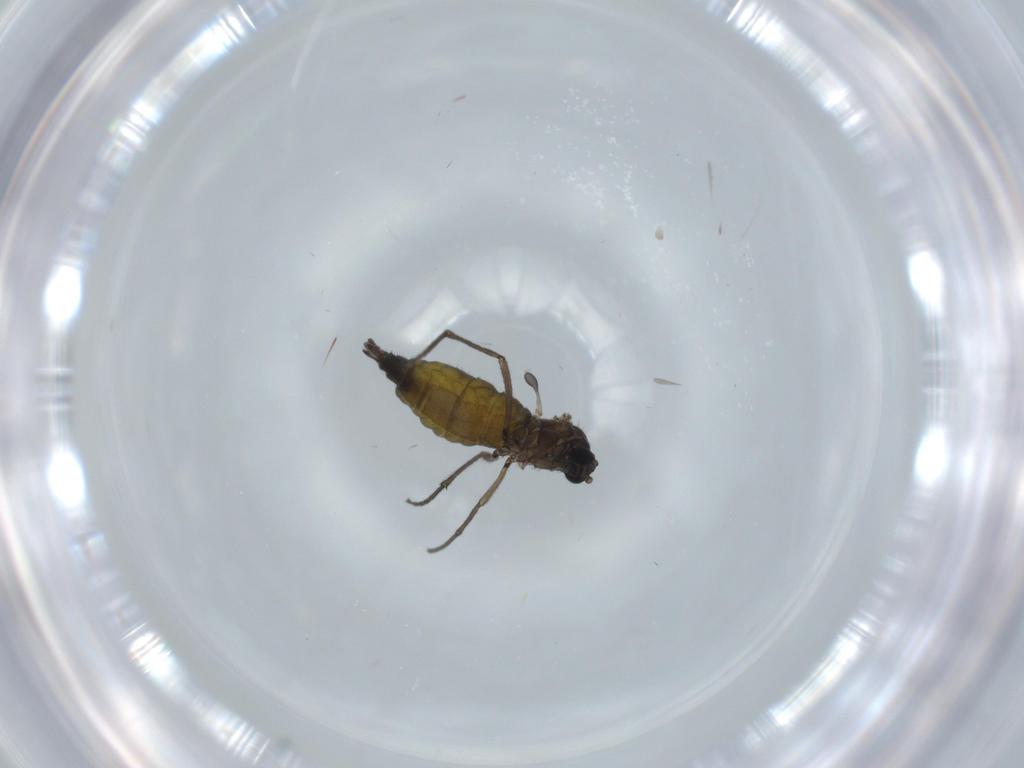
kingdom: Animalia
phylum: Arthropoda
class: Insecta
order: Diptera
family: Sciaridae
